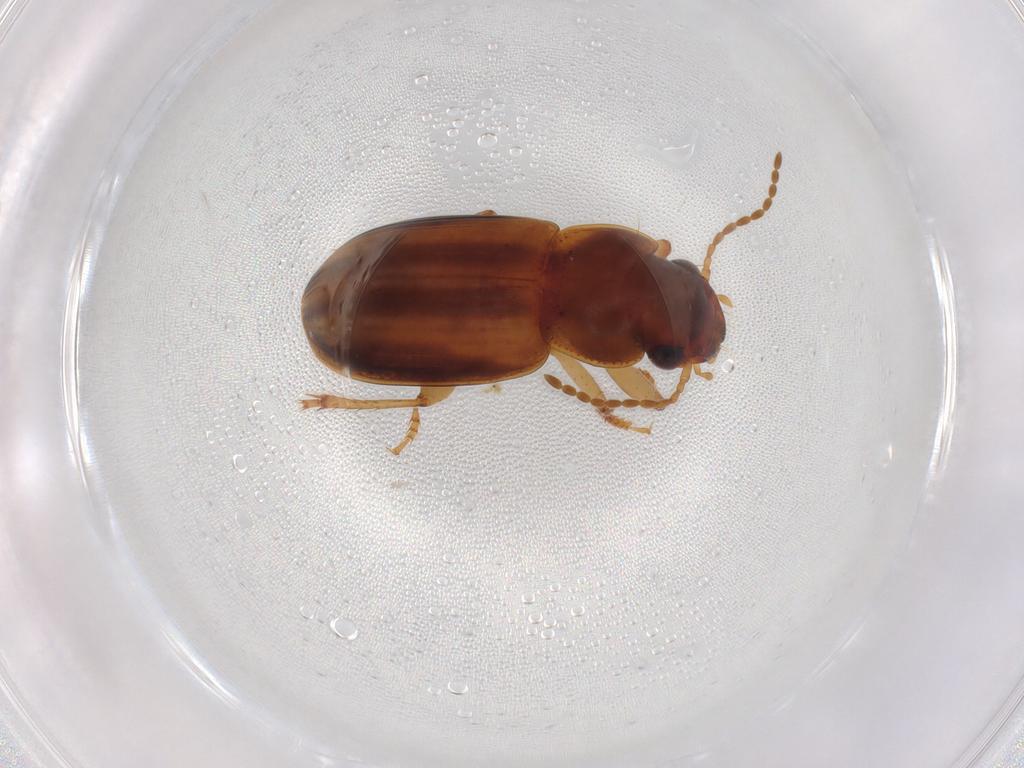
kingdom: Animalia
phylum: Arthropoda
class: Insecta
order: Coleoptera
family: Carabidae
